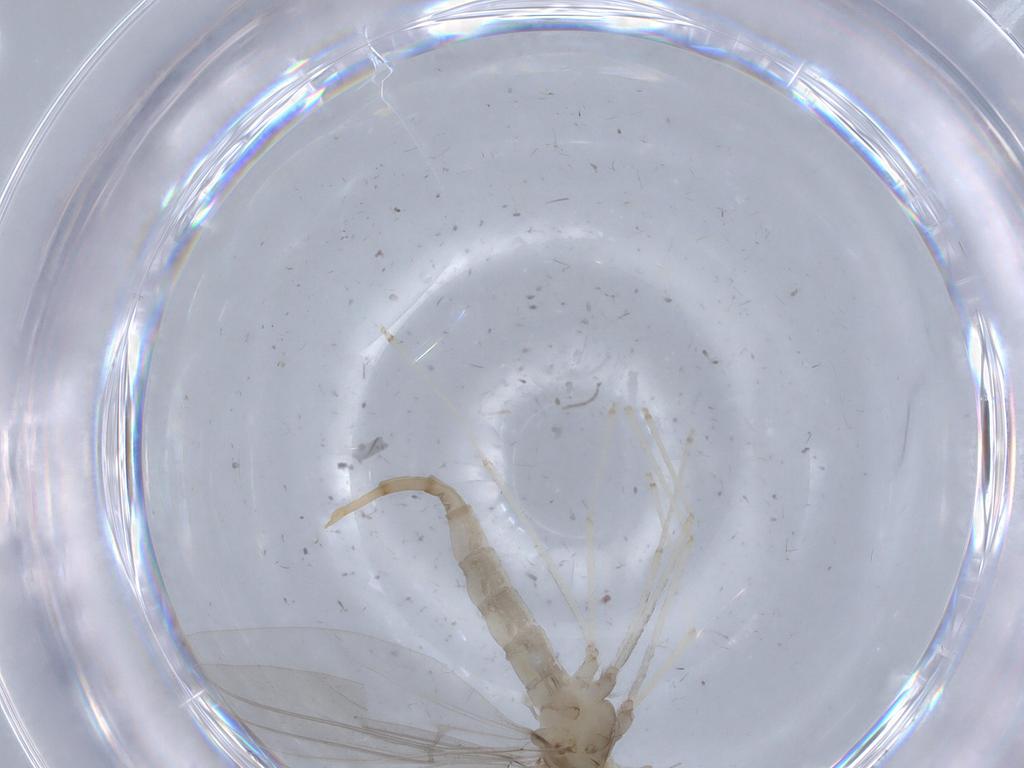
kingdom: Animalia
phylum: Arthropoda
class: Insecta
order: Diptera
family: Cecidomyiidae
